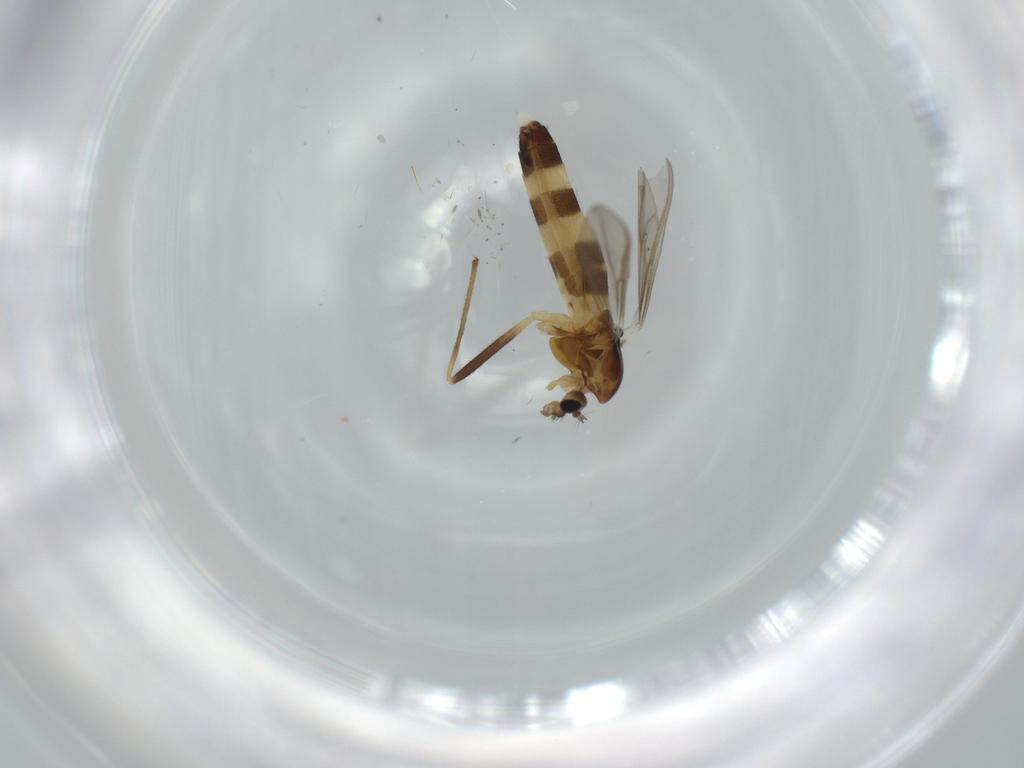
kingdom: Animalia
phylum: Arthropoda
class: Insecta
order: Diptera
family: Chironomidae
